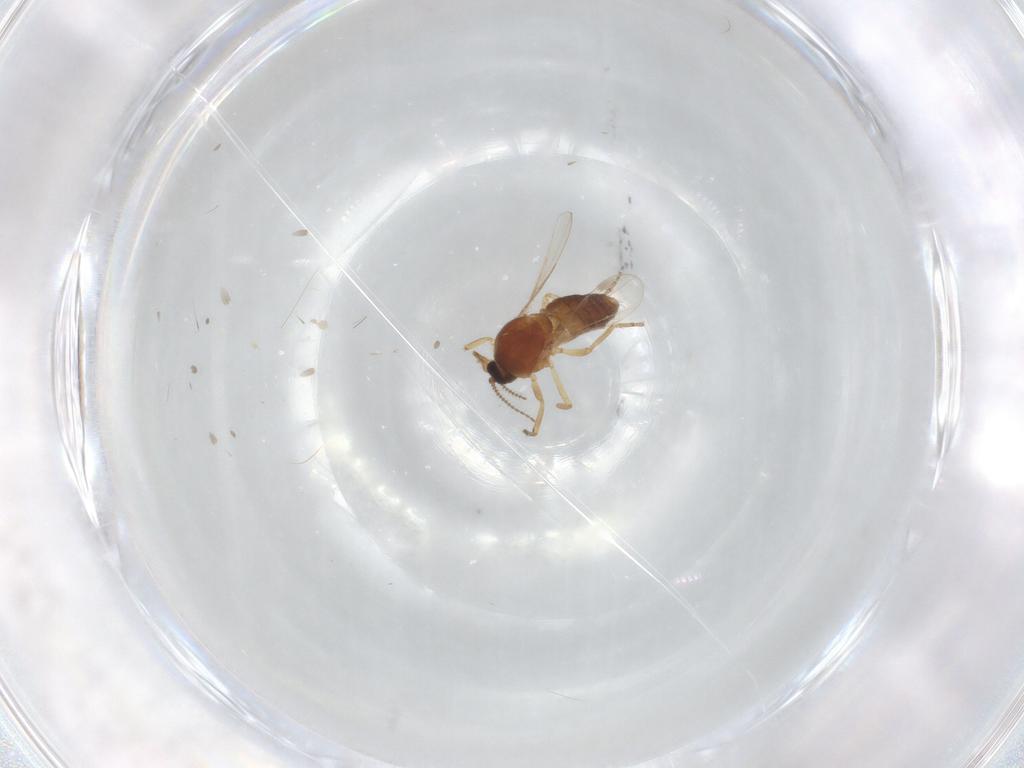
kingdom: Animalia
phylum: Arthropoda
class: Insecta
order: Diptera
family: Ceratopogonidae
